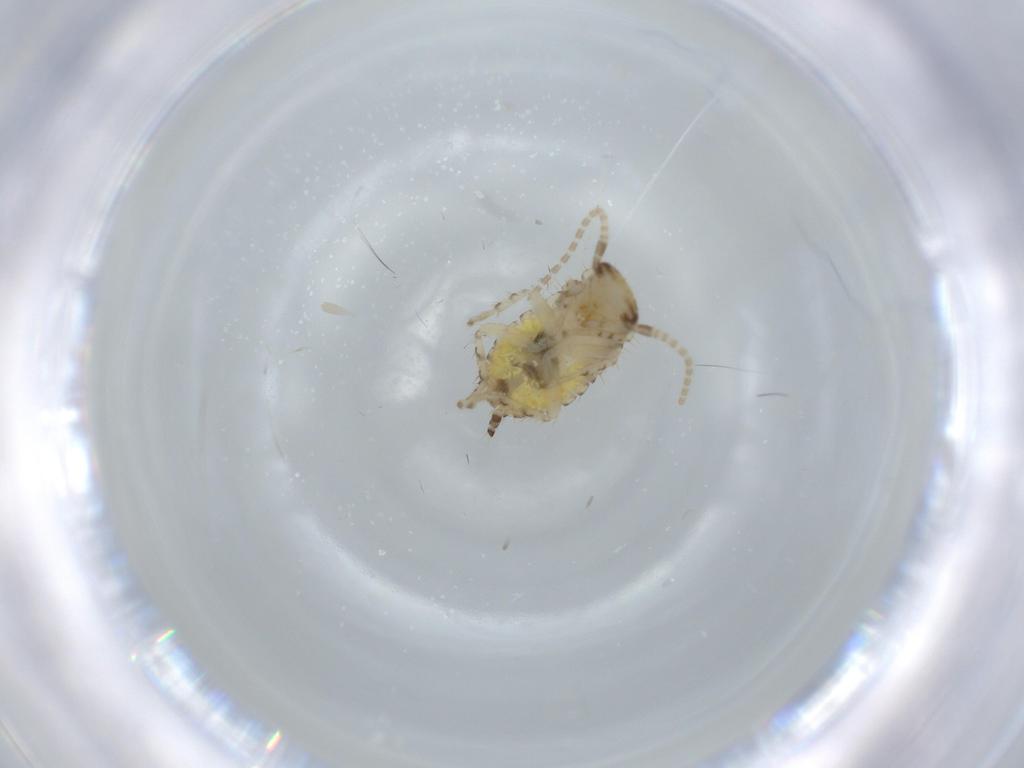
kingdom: Animalia
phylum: Arthropoda
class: Insecta
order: Blattodea
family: Ectobiidae
